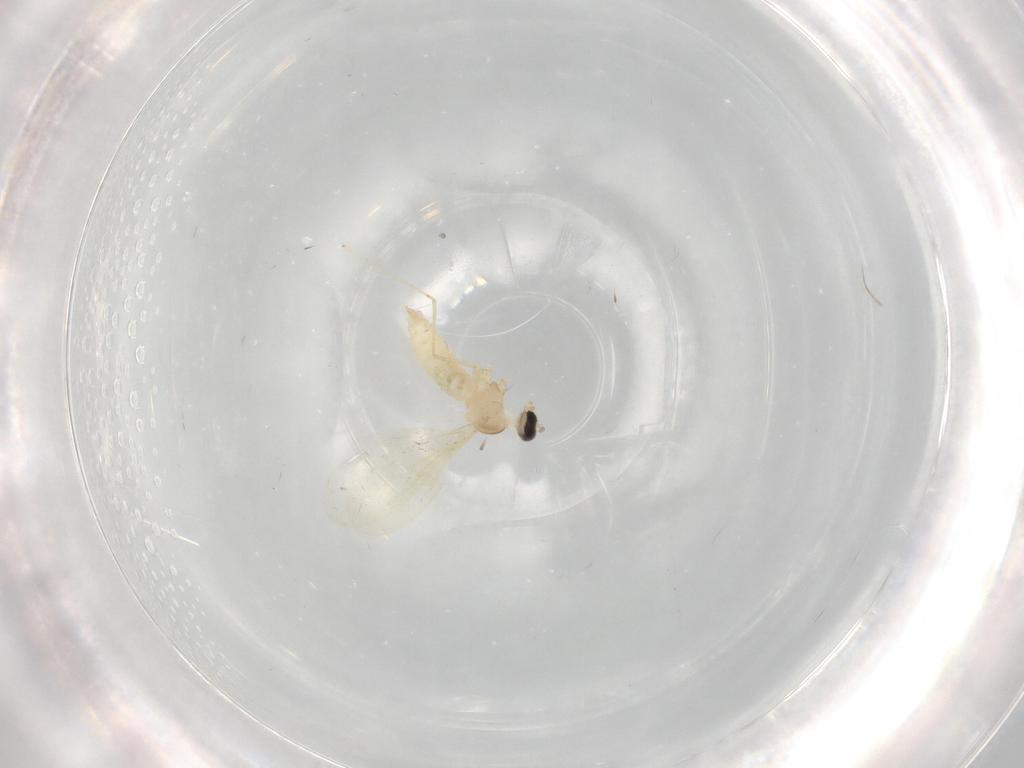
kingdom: Animalia
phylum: Arthropoda
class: Insecta
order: Diptera
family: Cecidomyiidae
